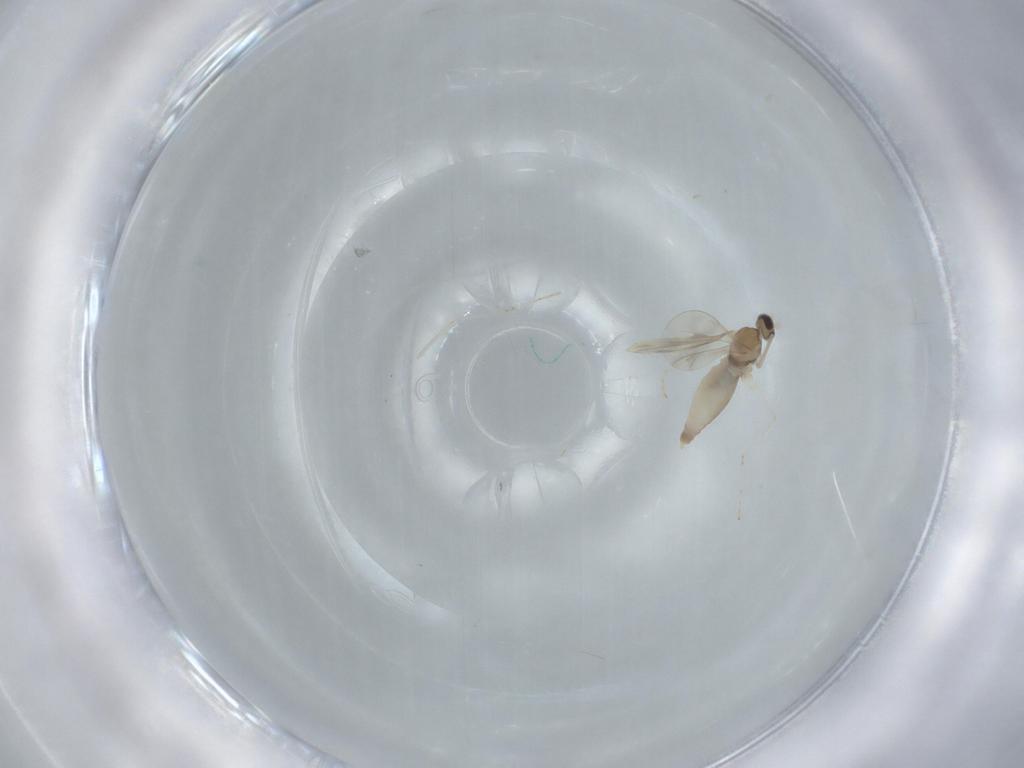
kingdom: Animalia
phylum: Arthropoda
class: Insecta
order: Diptera
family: Cecidomyiidae
